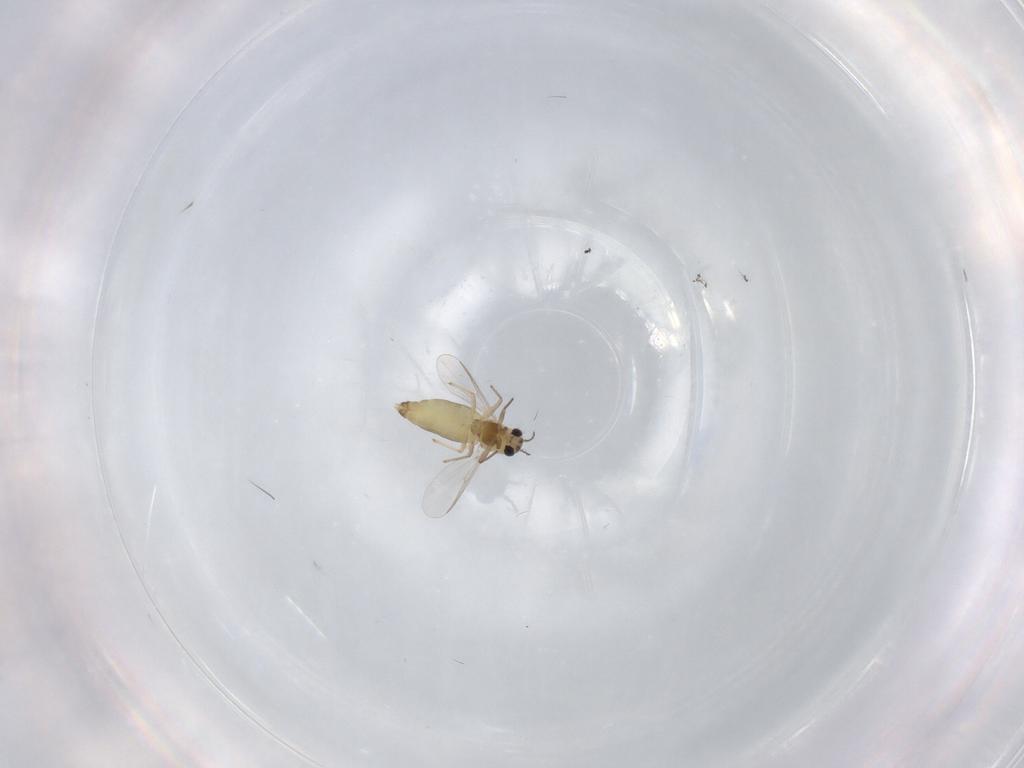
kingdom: Animalia
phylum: Arthropoda
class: Insecta
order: Diptera
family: Chironomidae
